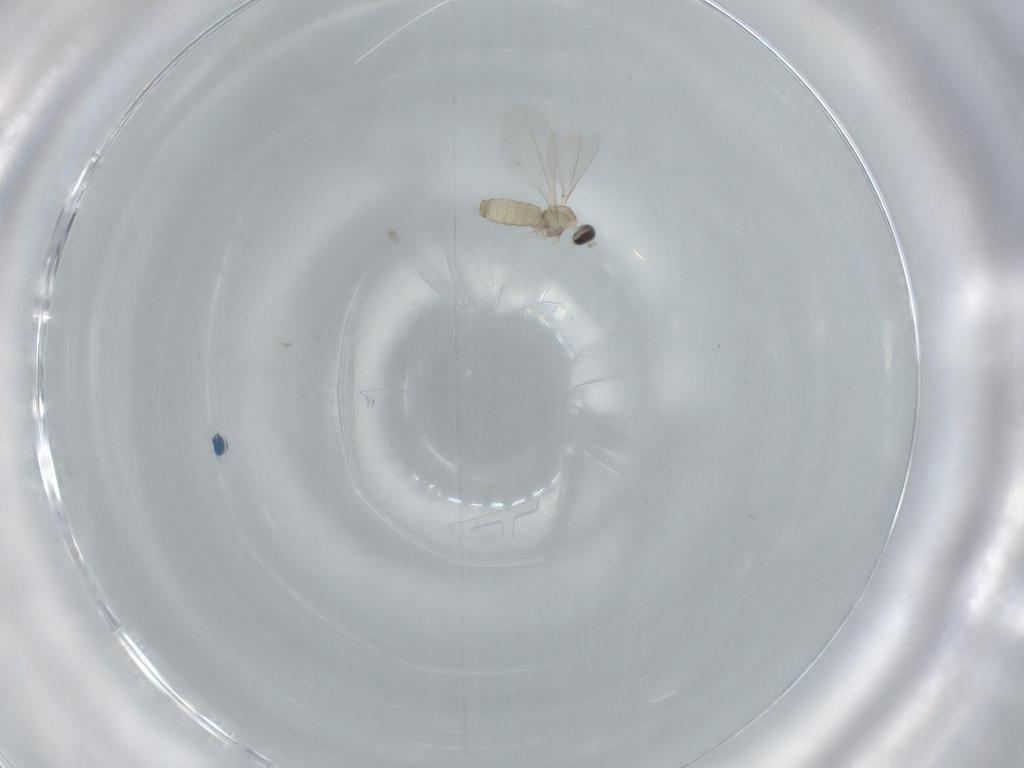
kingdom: Animalia
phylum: Arthropoda
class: Insecta
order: Diptera
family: Cecidomyiidae
